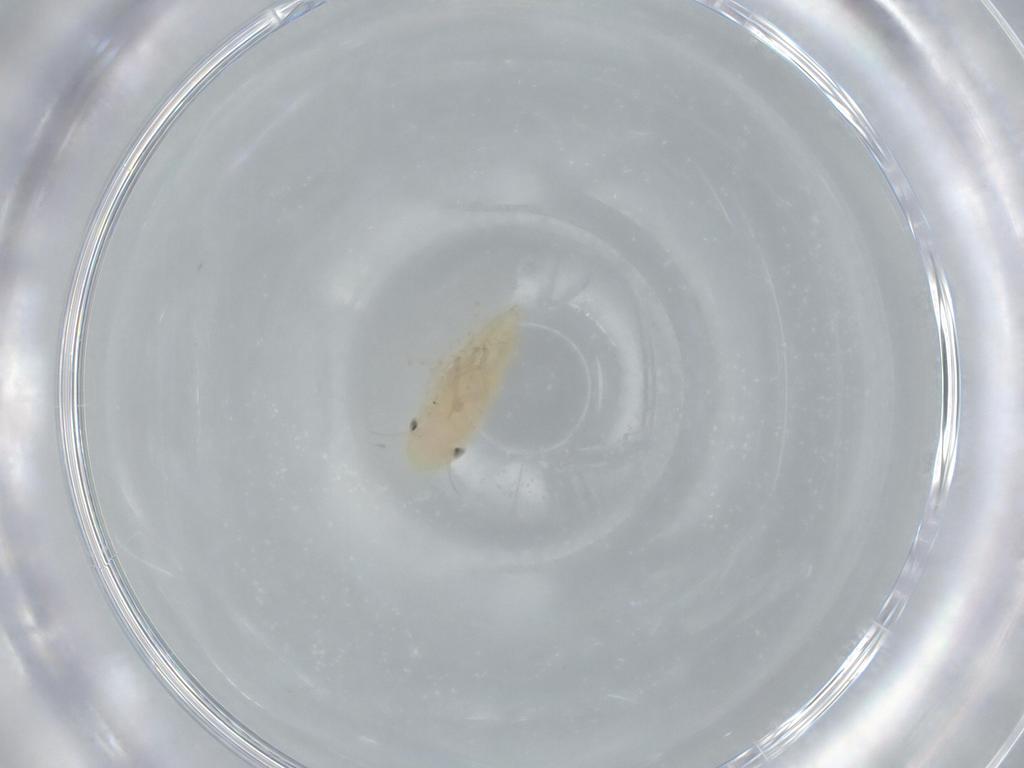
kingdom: Animalia
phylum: Arthropoda
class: Insecta
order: Hemiptera
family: Cicadellidae
